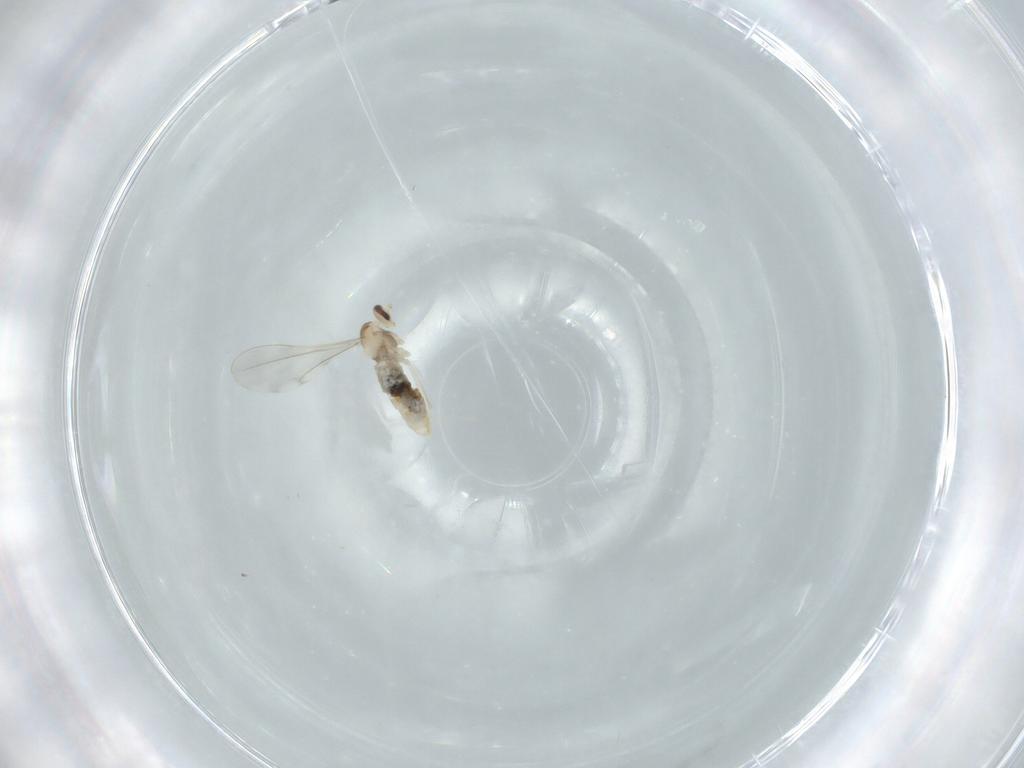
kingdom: Animalia
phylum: Arthropoda
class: Insecta
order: Diptera
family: Cecidomyiidae
